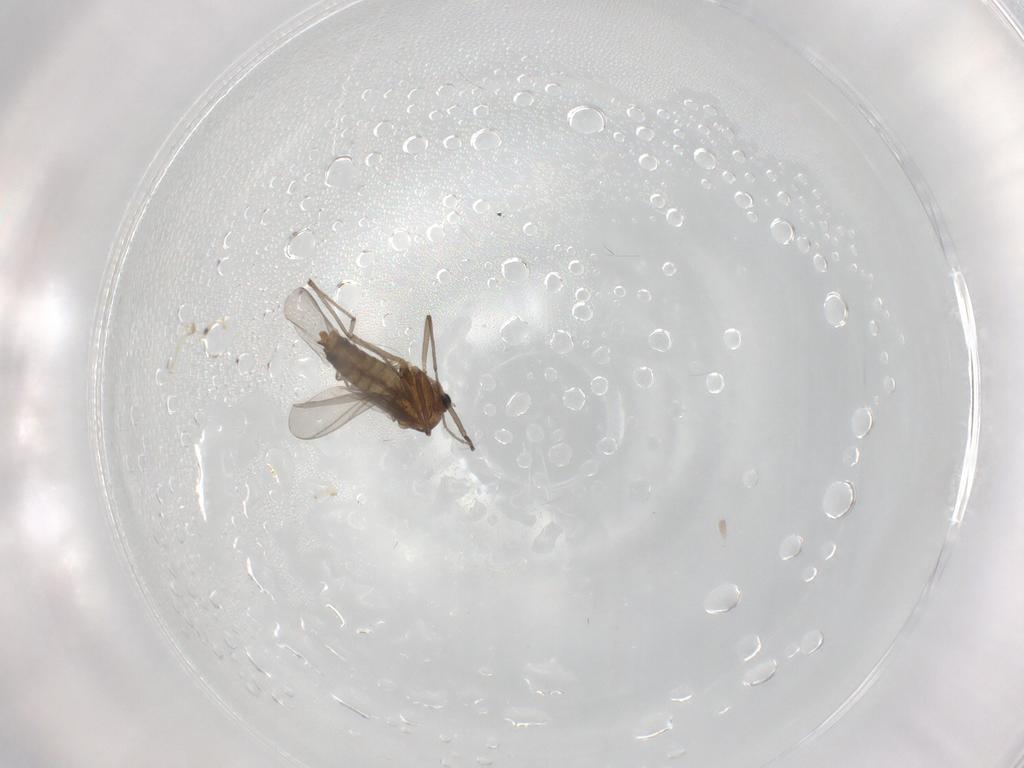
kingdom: Animalia
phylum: Arthropoda
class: Insecta
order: Diptera
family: Chironomidae
